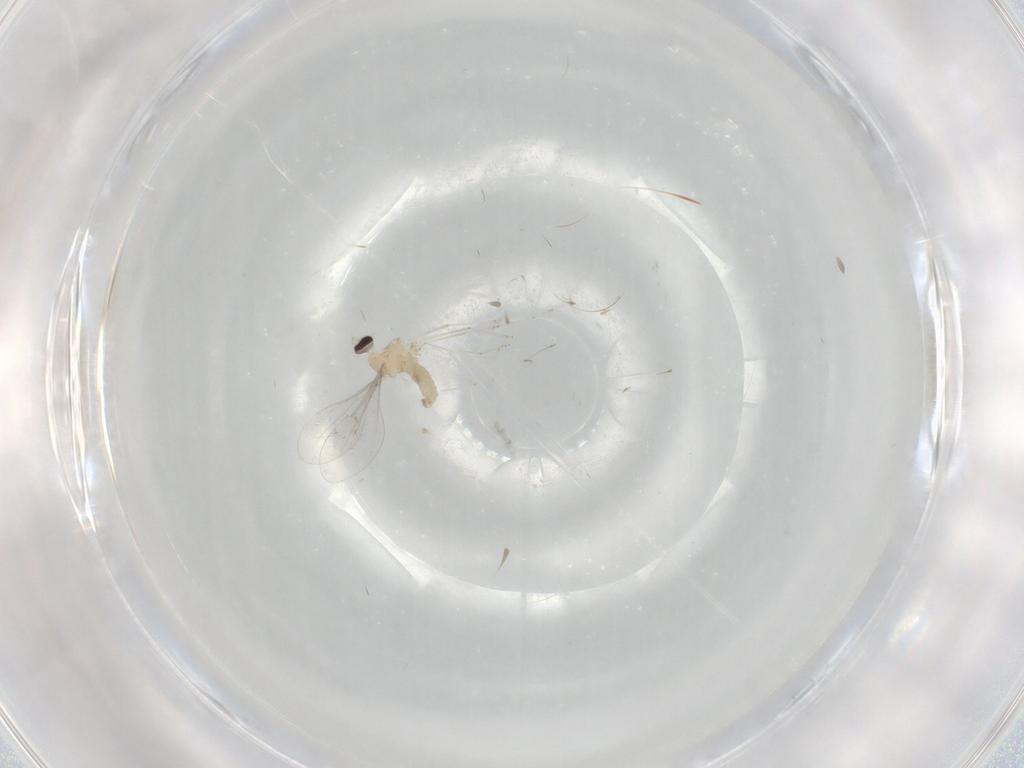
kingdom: Animalia
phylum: Arthropoda
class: Insecta
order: Diptera
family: Cecidomyiidae
